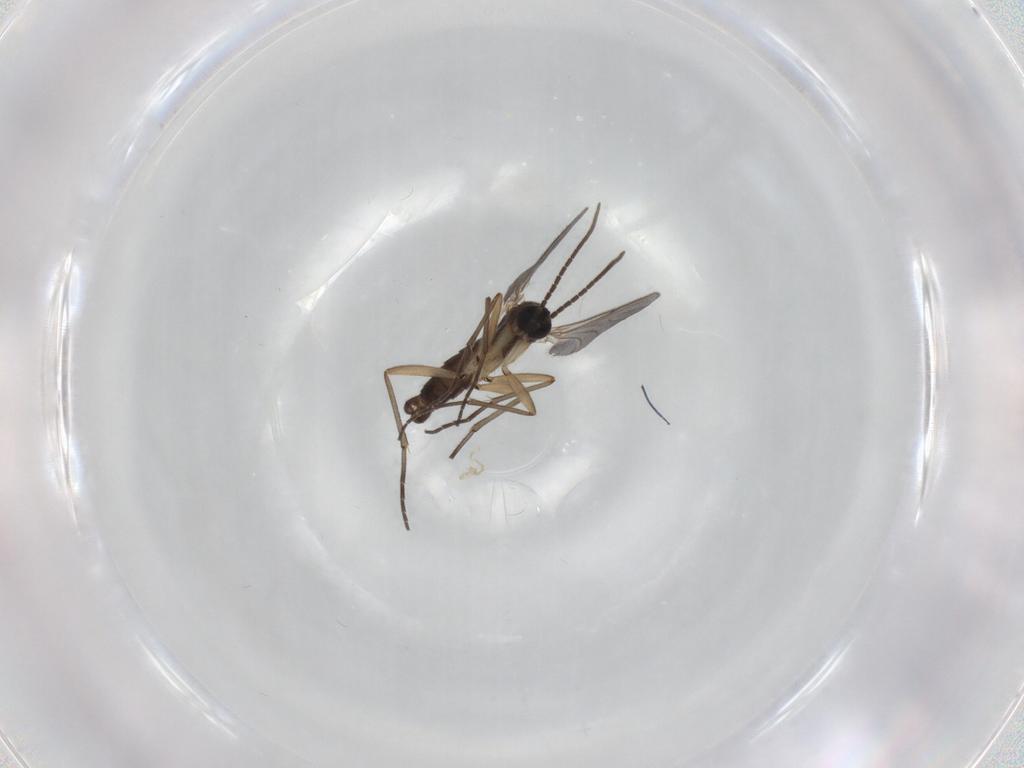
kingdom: Animalia
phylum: Arthropoda
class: Insecta
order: Diptera
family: Sciaridae
